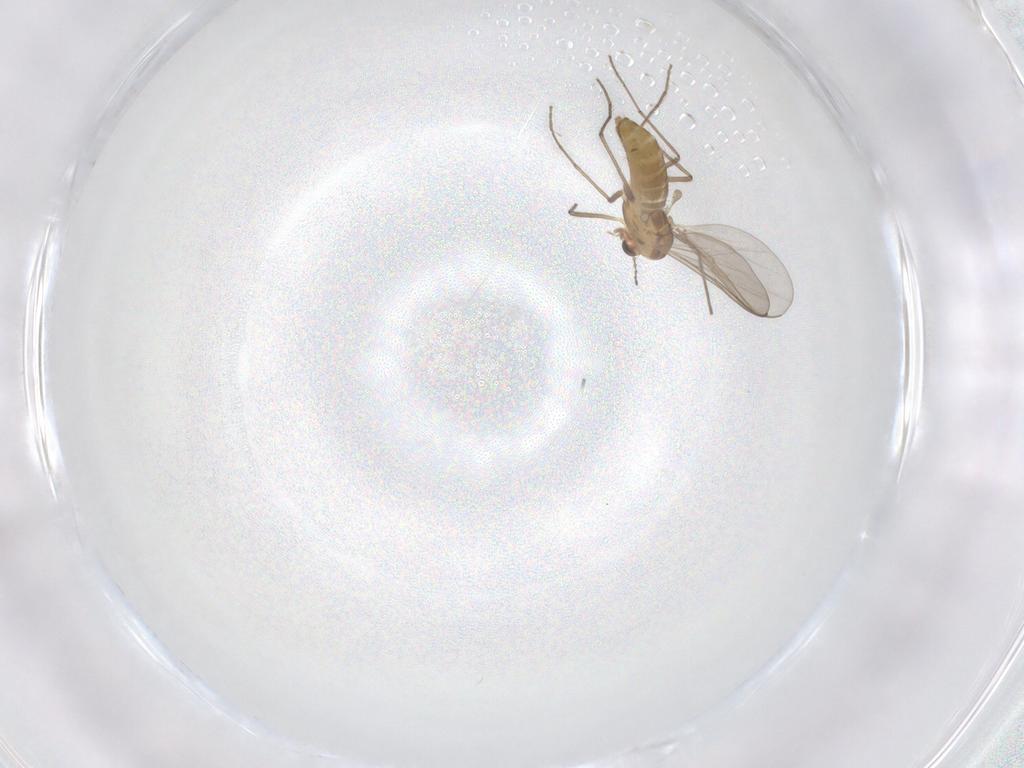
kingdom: Animalia
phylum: Arthropoda
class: Insecta
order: Diptera
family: Chironomidae
